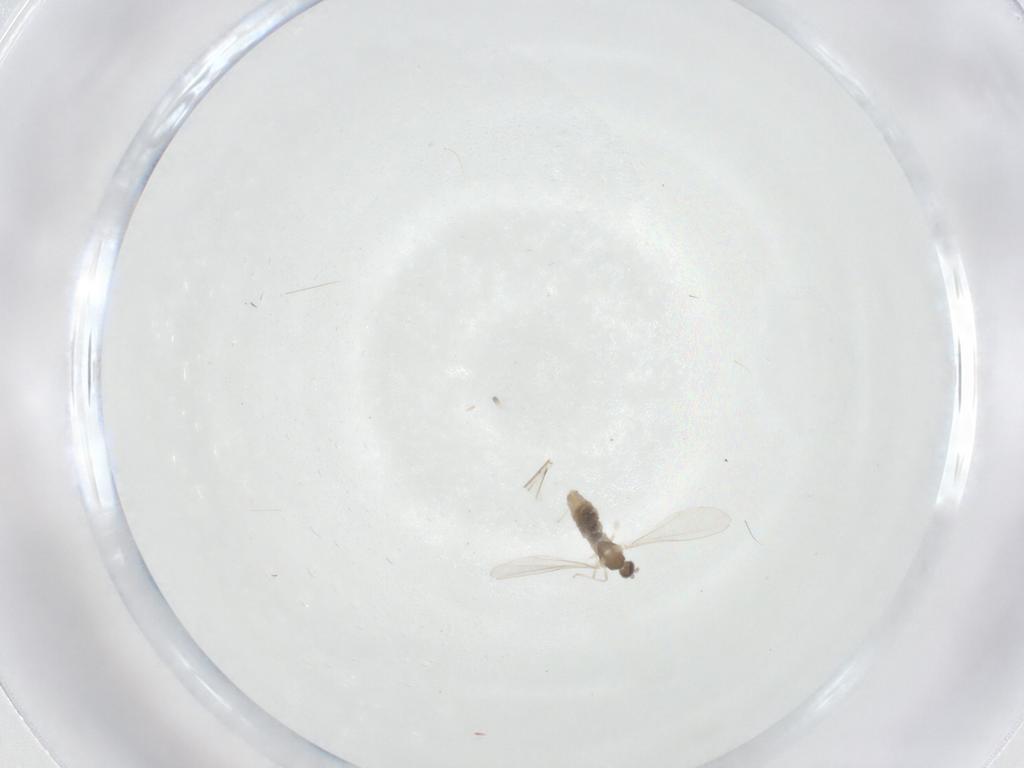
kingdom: Animalia
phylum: Arthropoda
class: Insecta
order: Diptera
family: Cecidomyiidae
